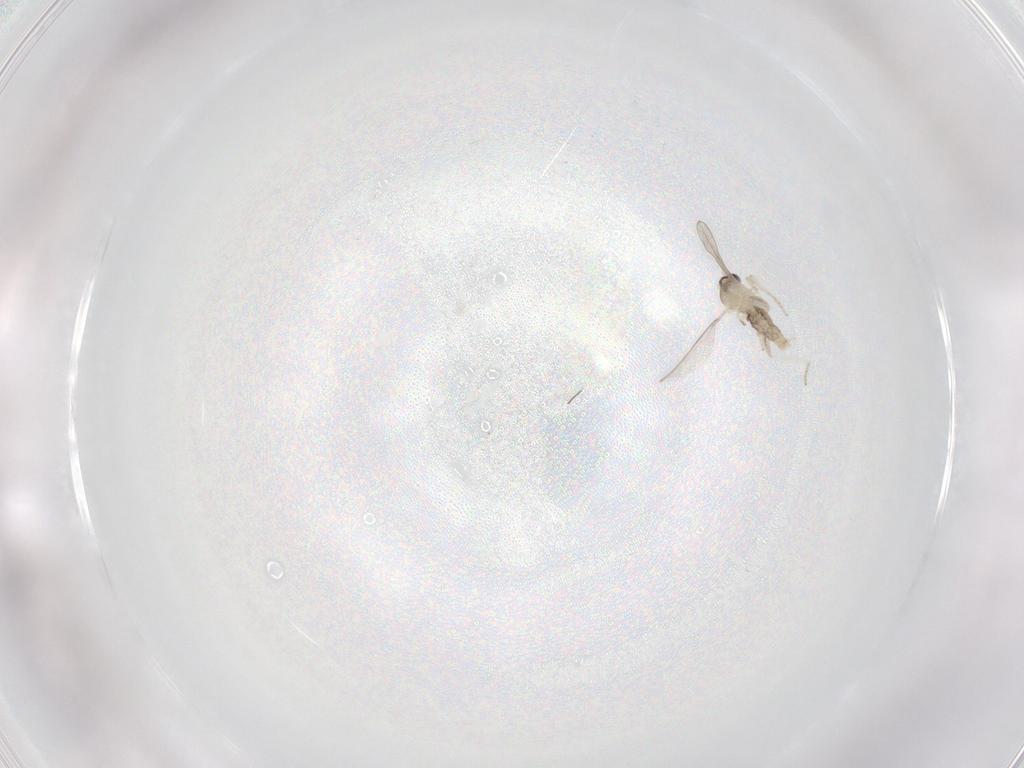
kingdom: Animalia
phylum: Arthropoda
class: Insecta
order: Diptera
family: Cecidomyiidae
